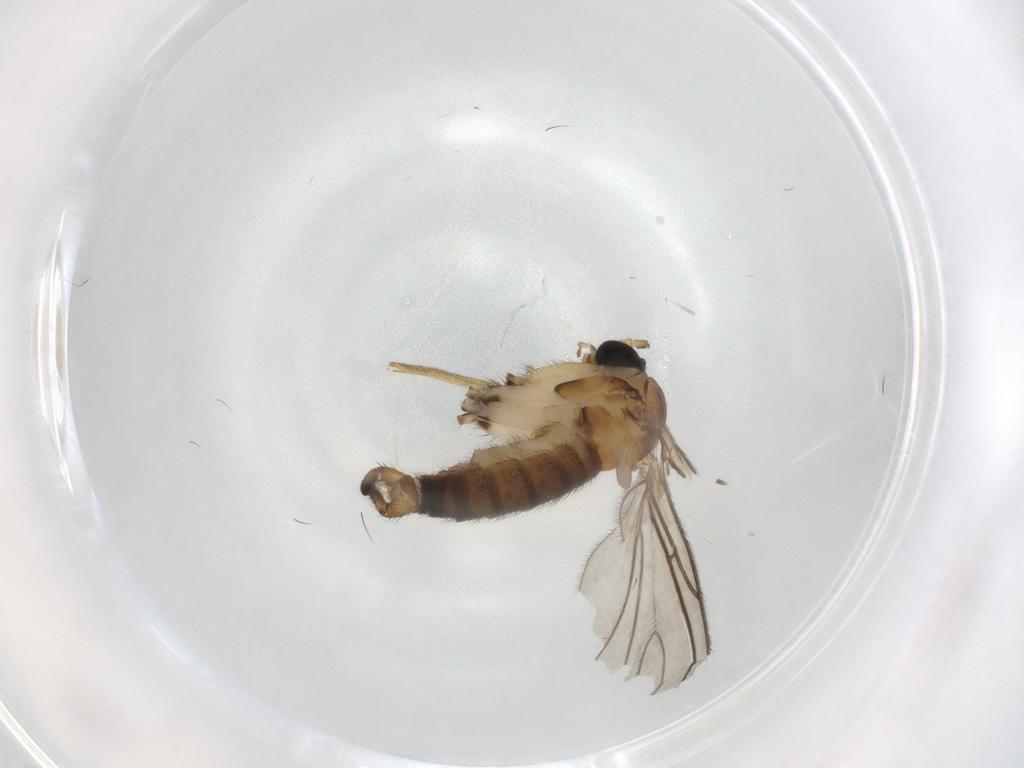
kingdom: Animalia
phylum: Arthropoda
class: Insecta
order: Diptera
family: Sciaridae
